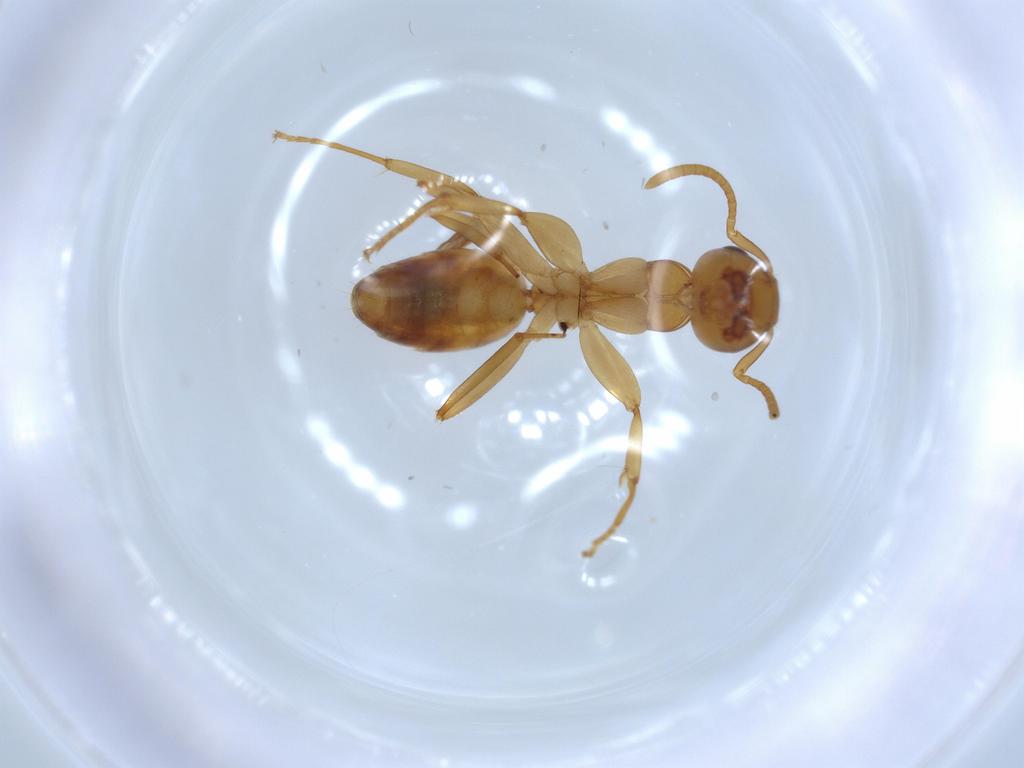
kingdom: Animalia
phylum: Arthropoda
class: Insecta
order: Hymenoptera
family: Formicidae
